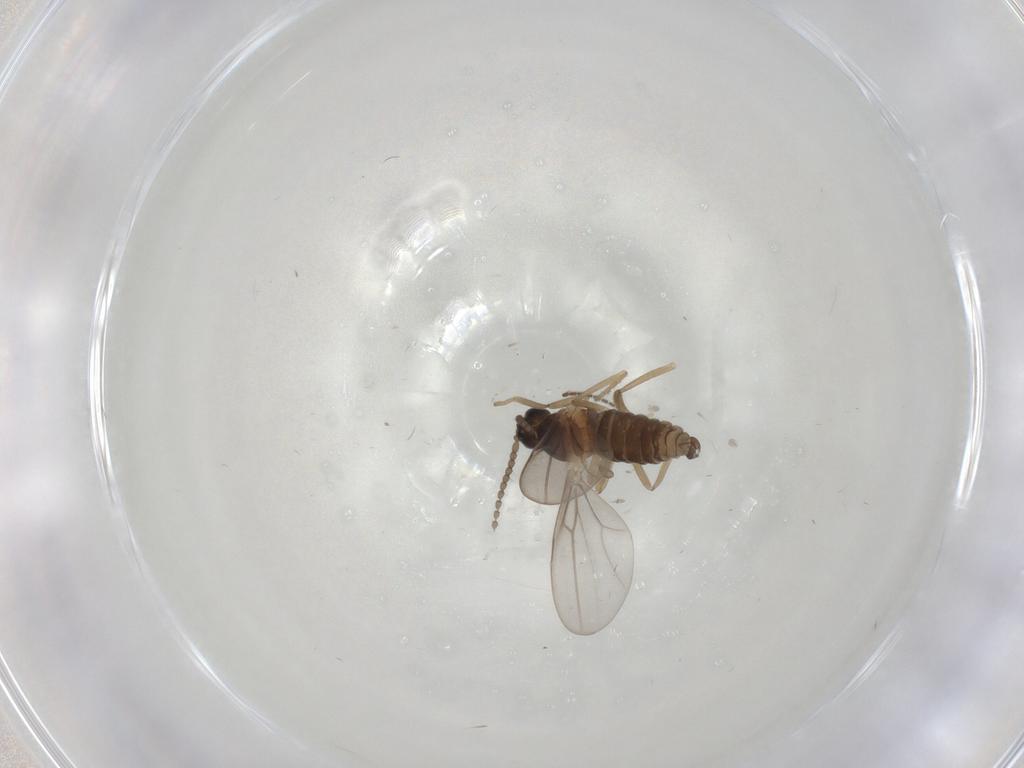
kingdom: Animalia
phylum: Arthropoda
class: Insecta
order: Diptera
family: Cecidomyiidae
